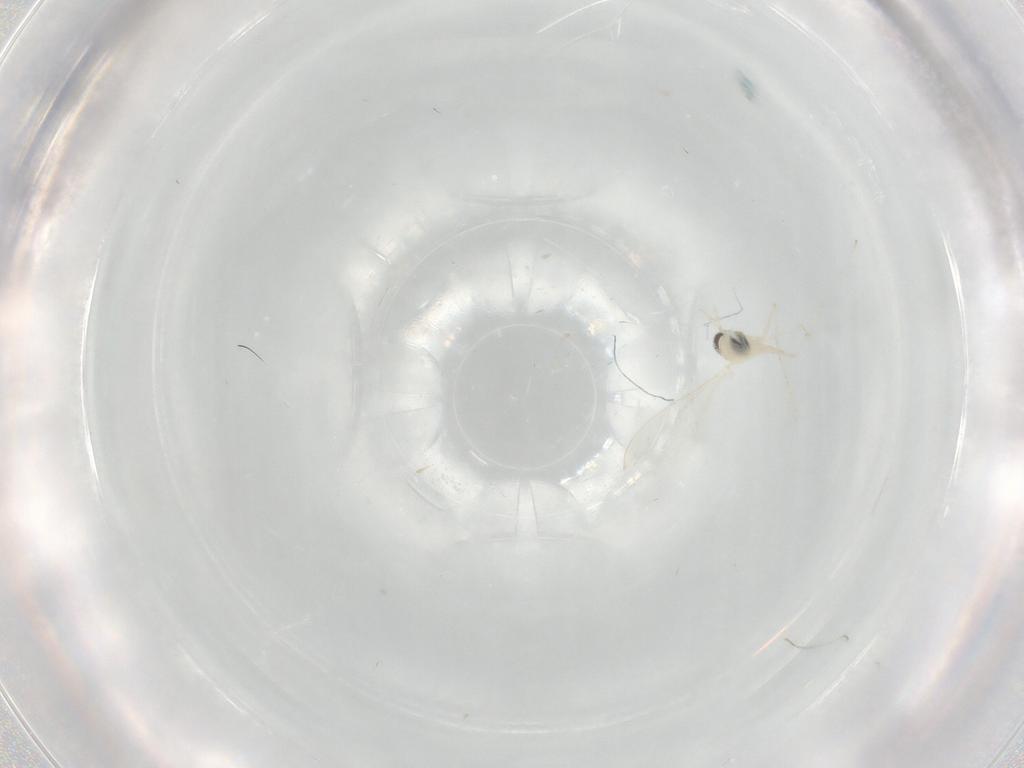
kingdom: Animalia
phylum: Arthropoda
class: Insecta
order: Diptera
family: Cecidomyiidae
